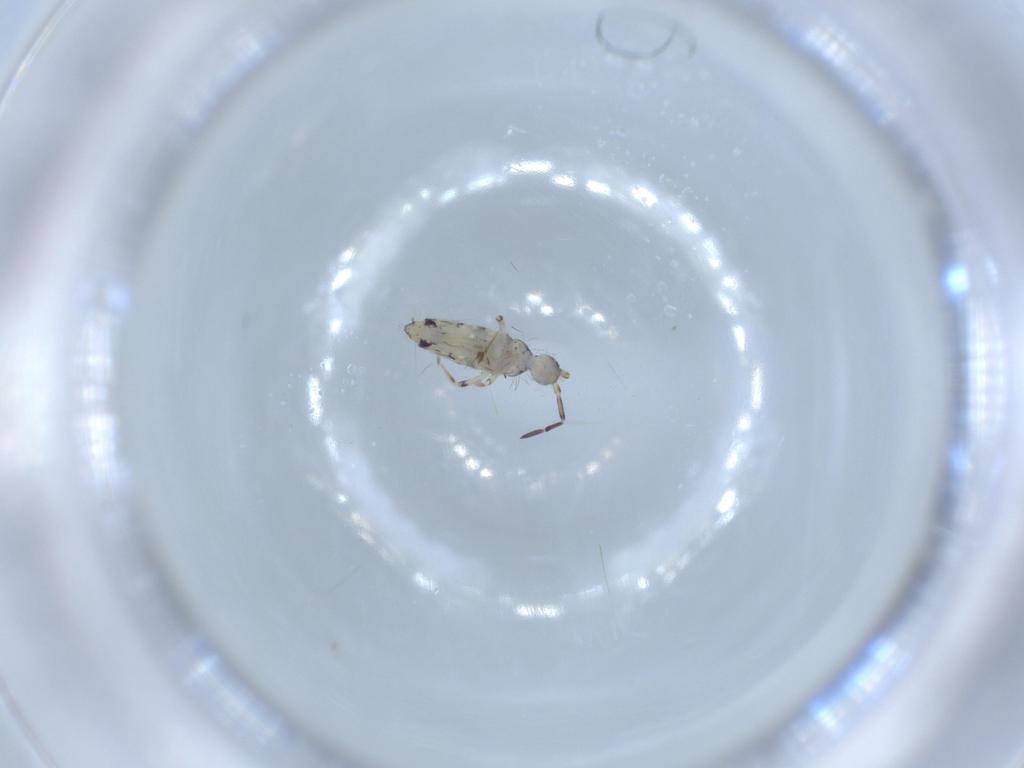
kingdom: Animalia
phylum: Arthropoda
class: Collembola
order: Entomobryomorpha
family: Entomobryidae
